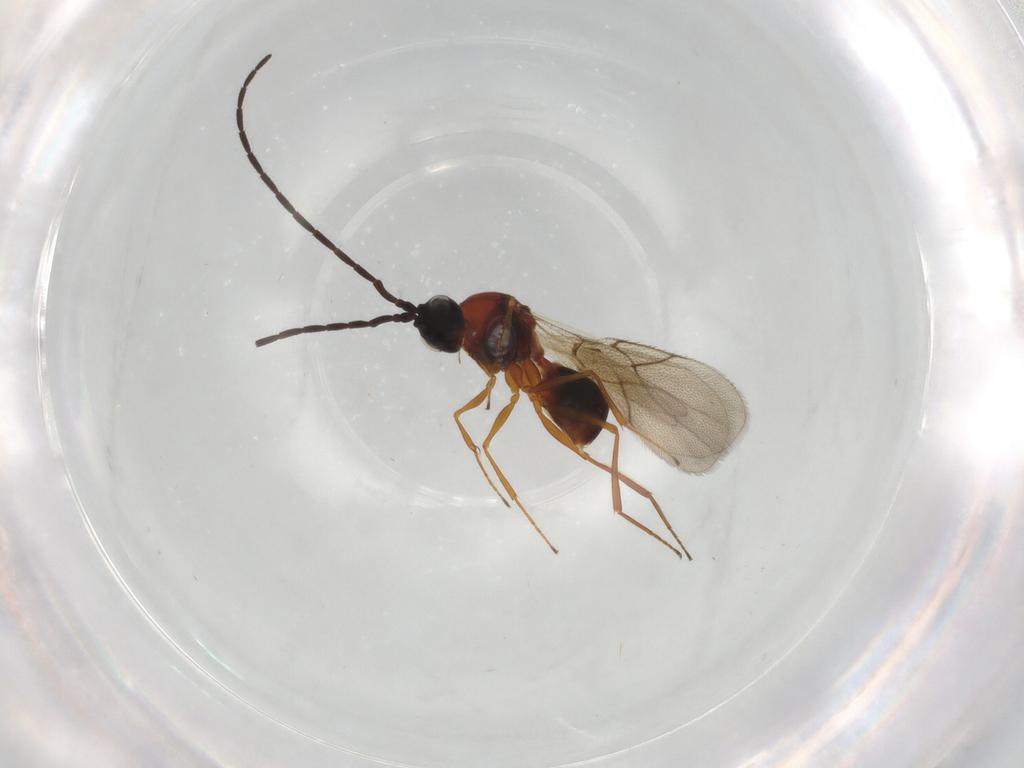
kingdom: Animalia
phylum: Arthropoda
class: Insecta
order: Hymenoptera
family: Figitidae
